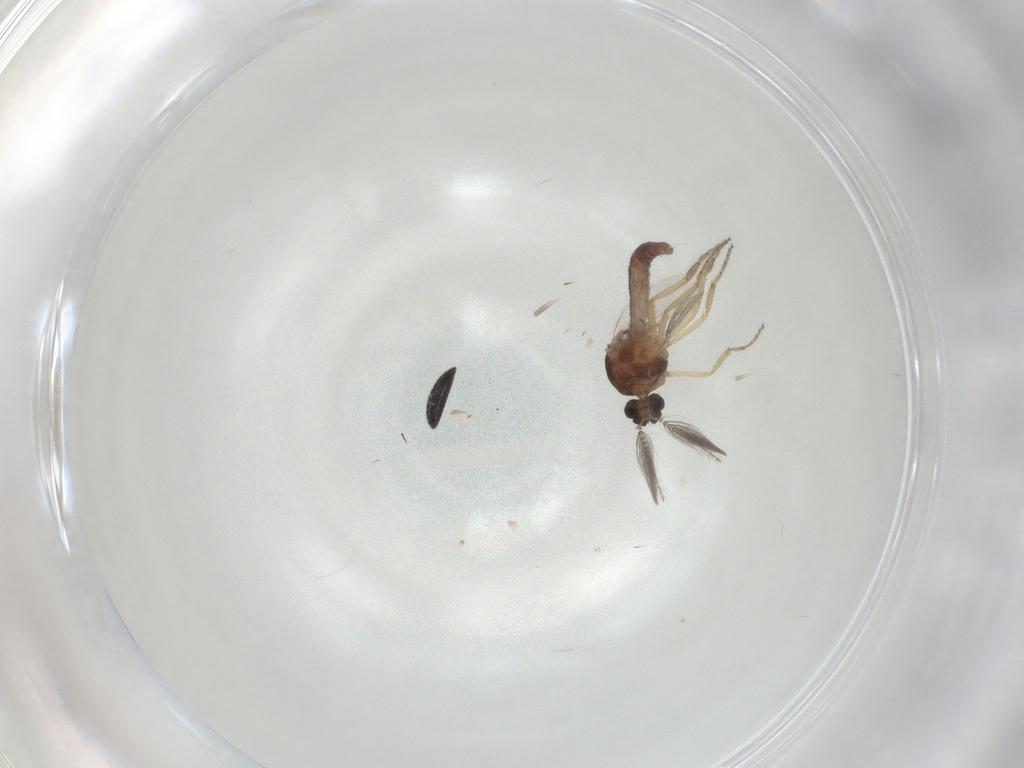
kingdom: Animalia
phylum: Arthropoda
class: Insecta
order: Diptera
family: Ceratopogonidae
